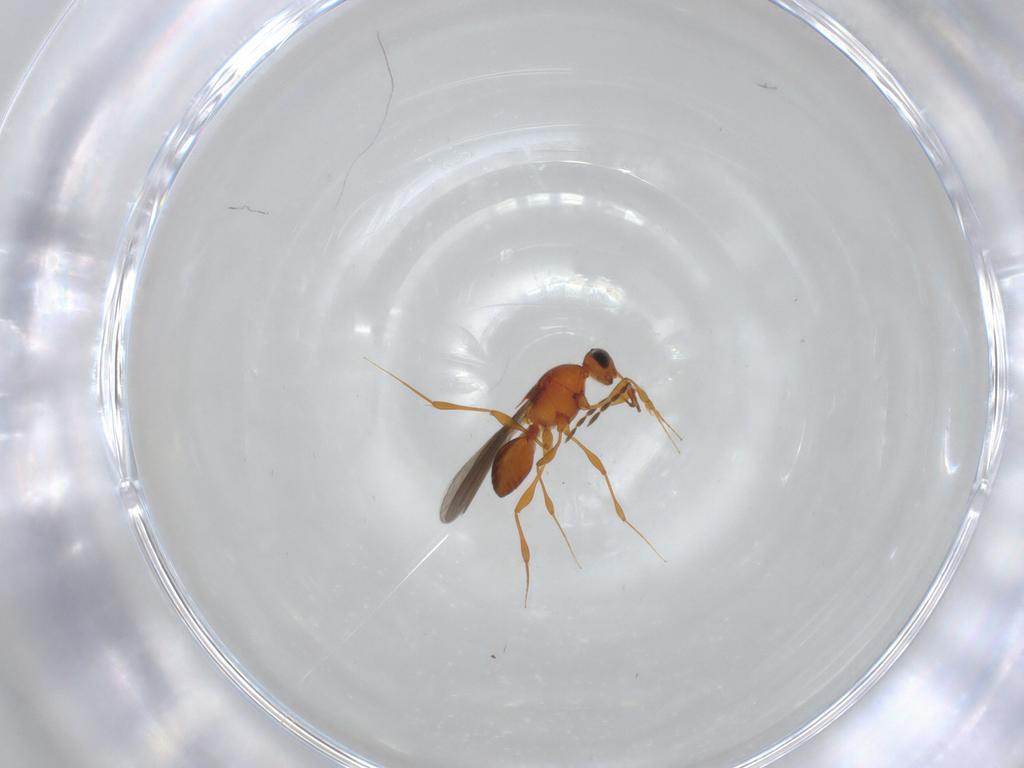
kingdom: Animalia
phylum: Arthropoda
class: Insecta
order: Hymenoptera
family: Platygastridae
